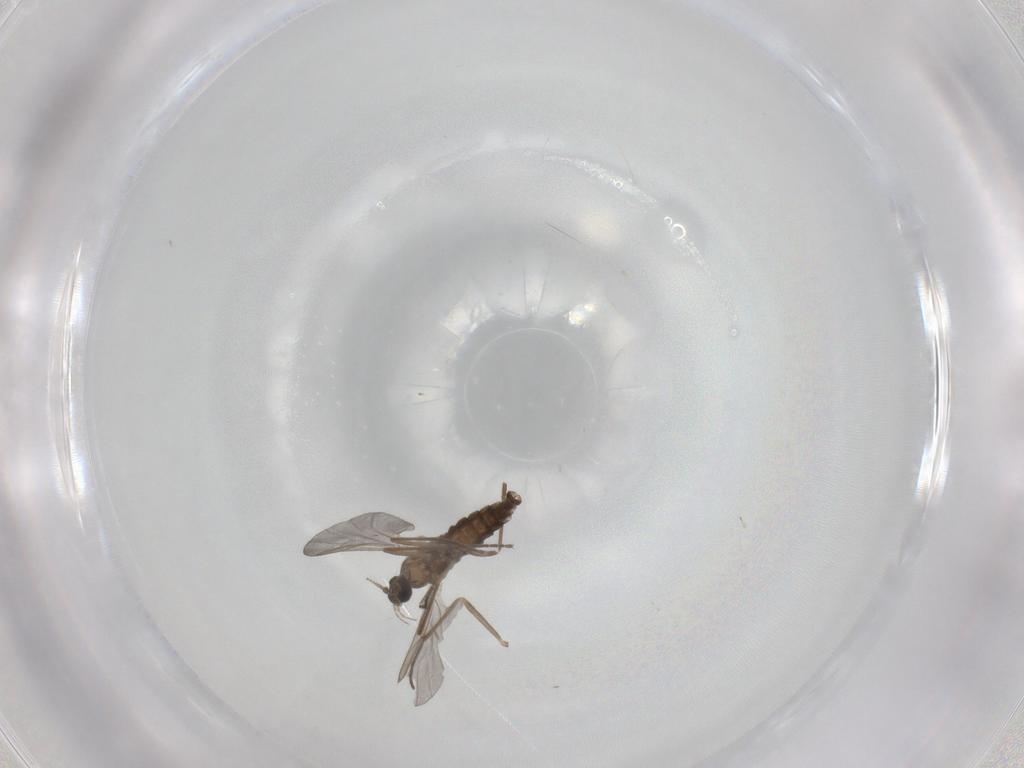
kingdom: Animalia
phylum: Arthropoda
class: Insecta
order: Diptera
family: Cecidomyiidae
